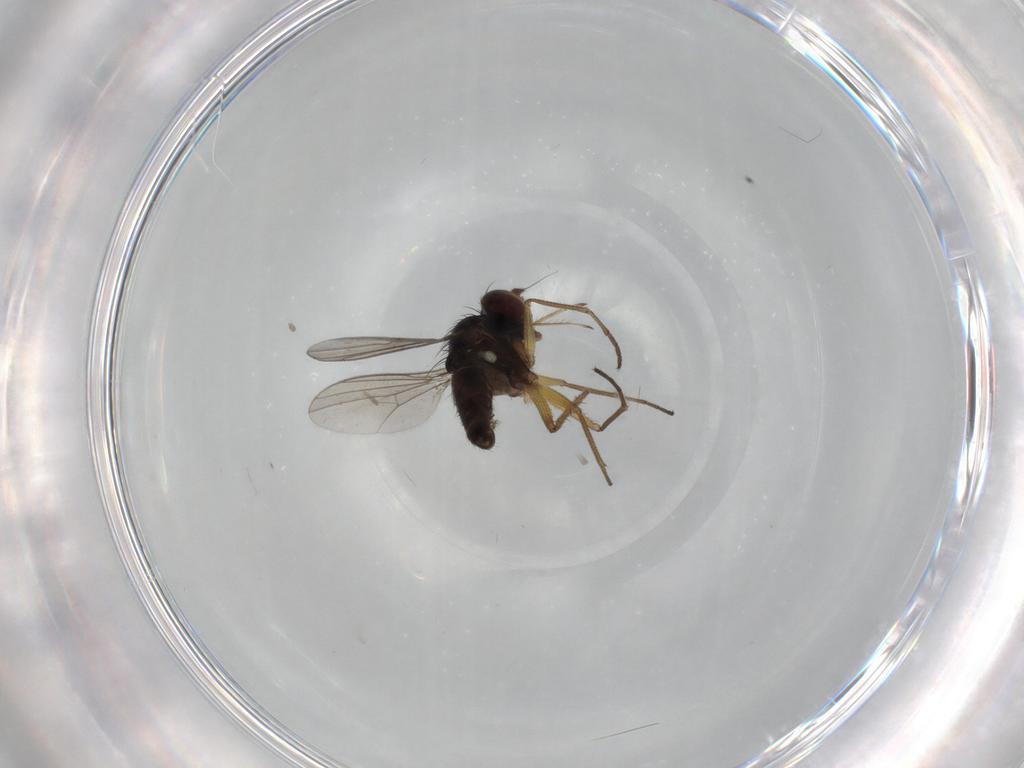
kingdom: Animalia
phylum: Arthropoda
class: Insecta
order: Diptera
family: Dolichopodidae
